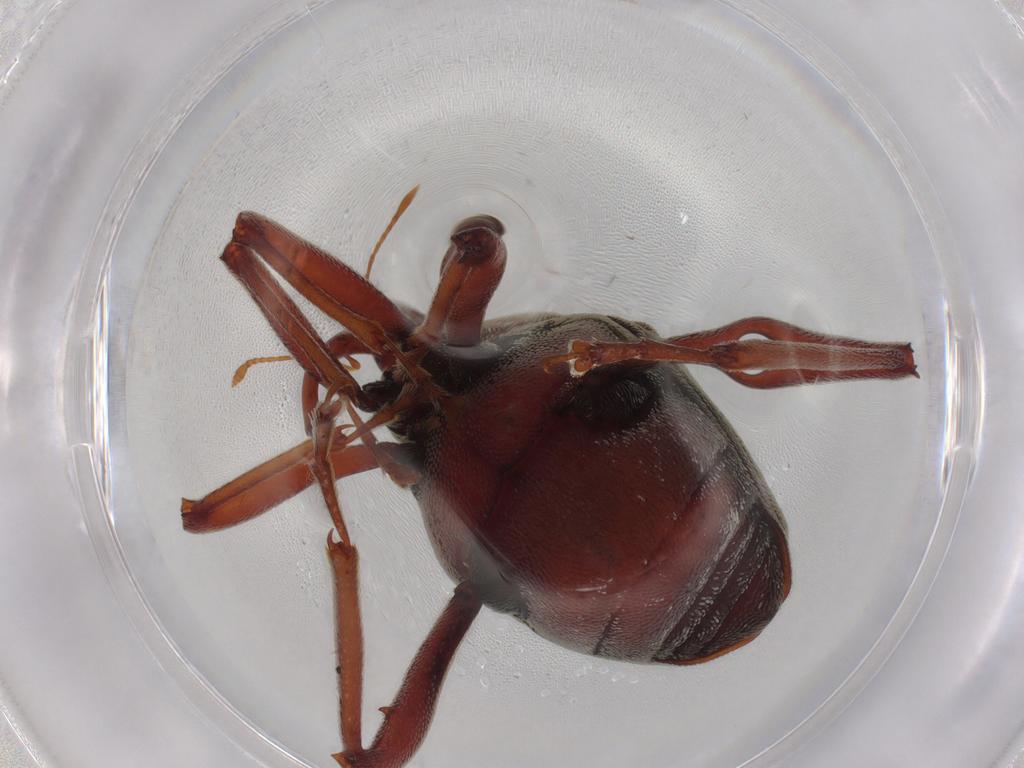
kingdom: Animalia
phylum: Arthropoda
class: Insecta
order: Coleoptera
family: Curculionidae
